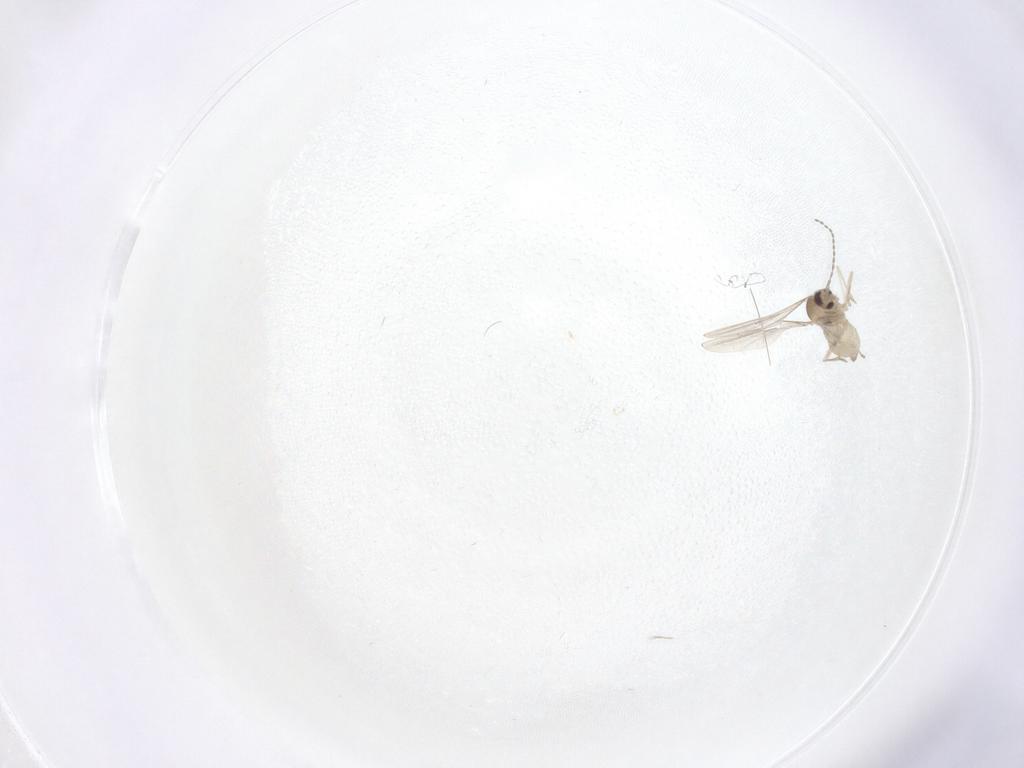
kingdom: Animalia
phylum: Arthropoda
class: Insecta
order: Diptera
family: Cecidomyiidae
